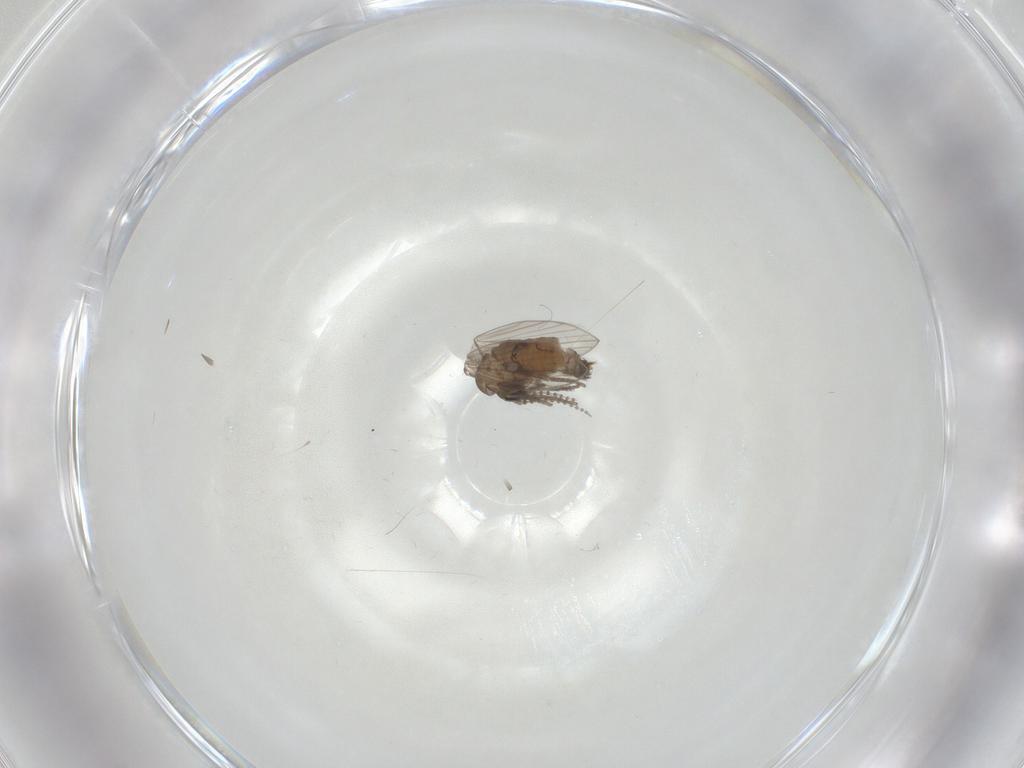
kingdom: Animalia
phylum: Arthropoda
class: Insecta
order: Diptera
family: Psychodidae
